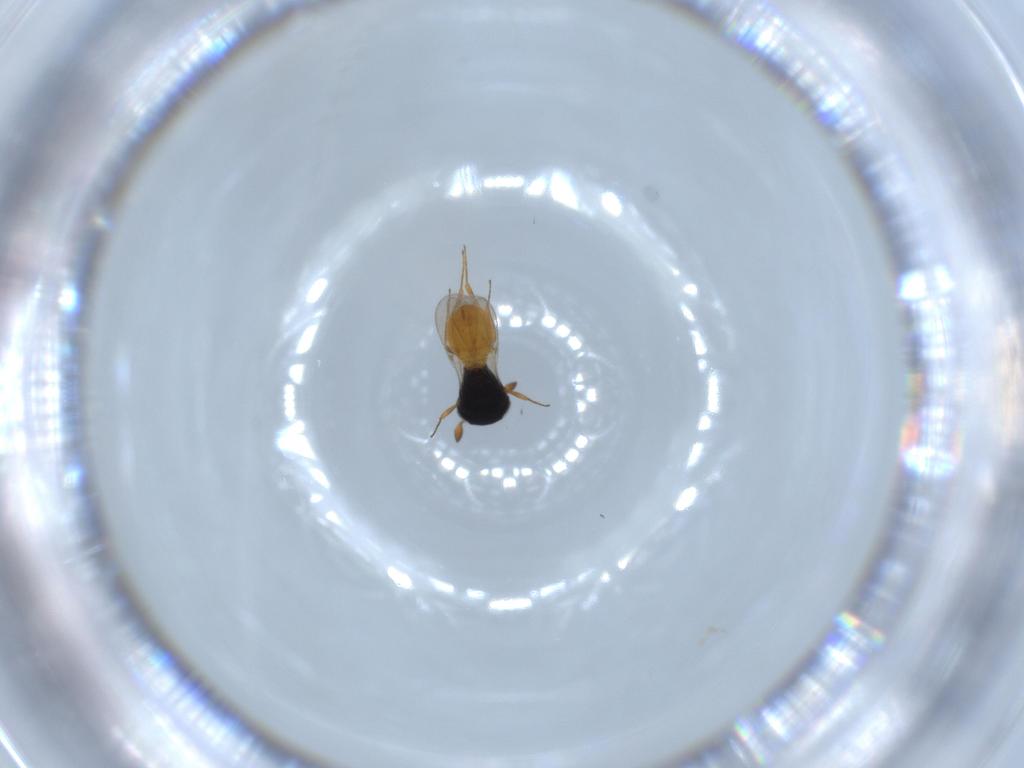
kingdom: Animalia
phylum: Arthropoda
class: Insecta
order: Hymenoptera
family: Scelionidae
